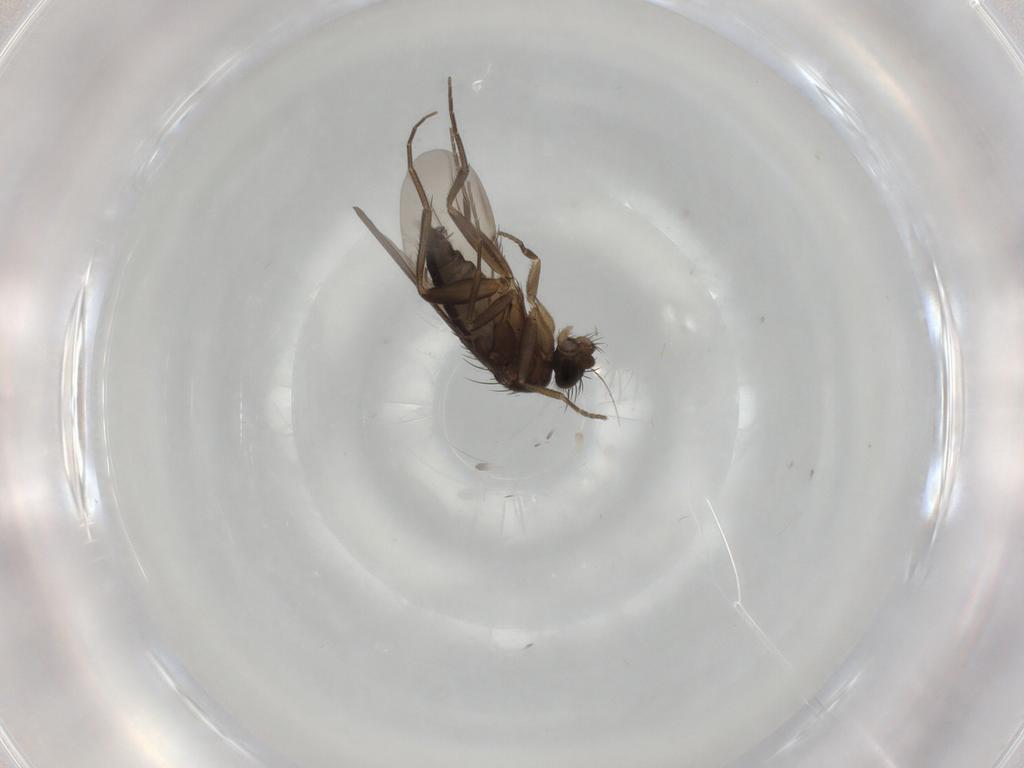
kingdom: Animalia
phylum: Arthropoda
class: Insecta
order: Diptera
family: Phoridae
